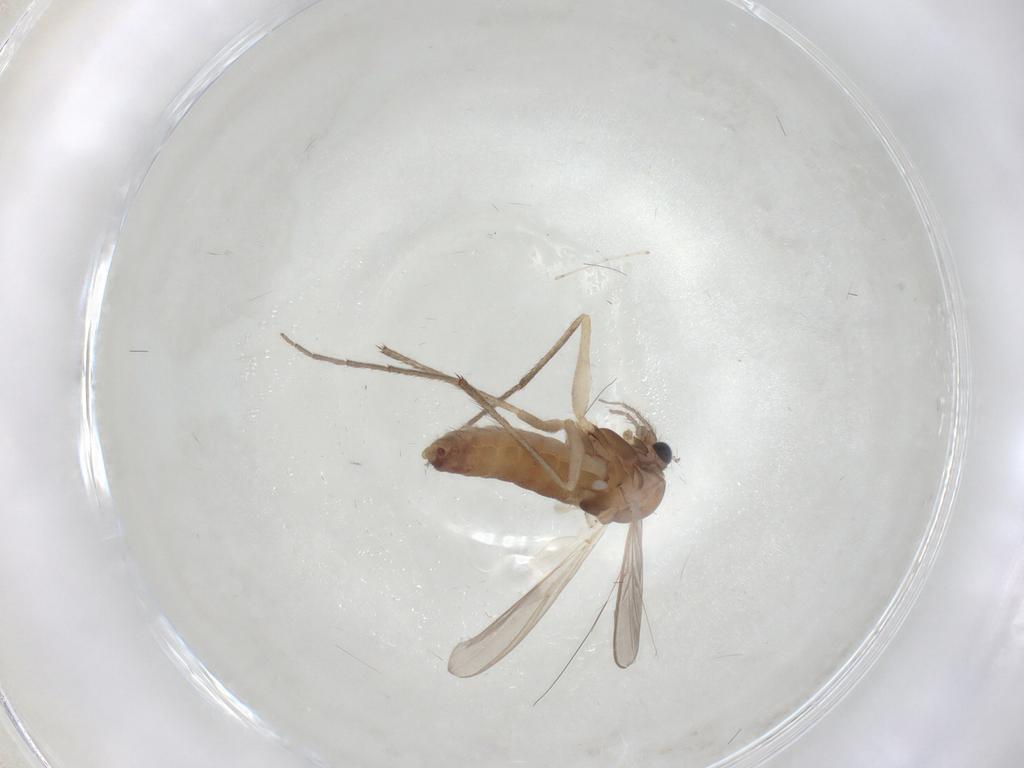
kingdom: Animalia
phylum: Arthropoda
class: Insecta
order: Diptera
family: Chironomidae
